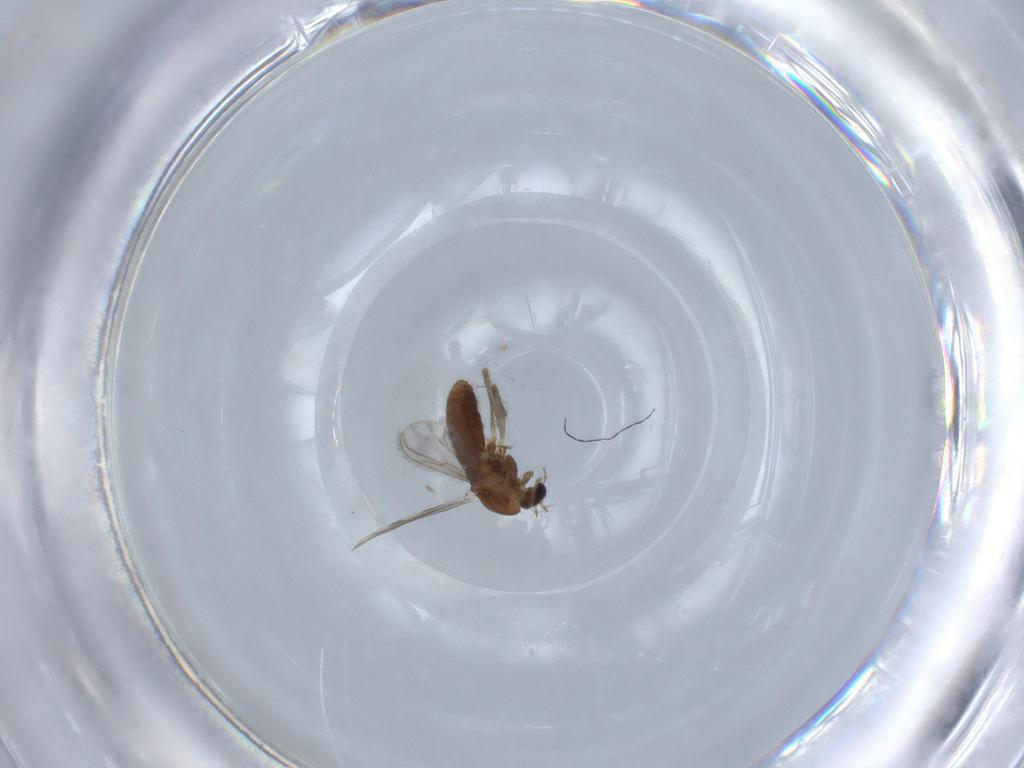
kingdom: Animalia
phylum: Arthropoda
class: Insecta
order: Diptera
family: Chironomidae
